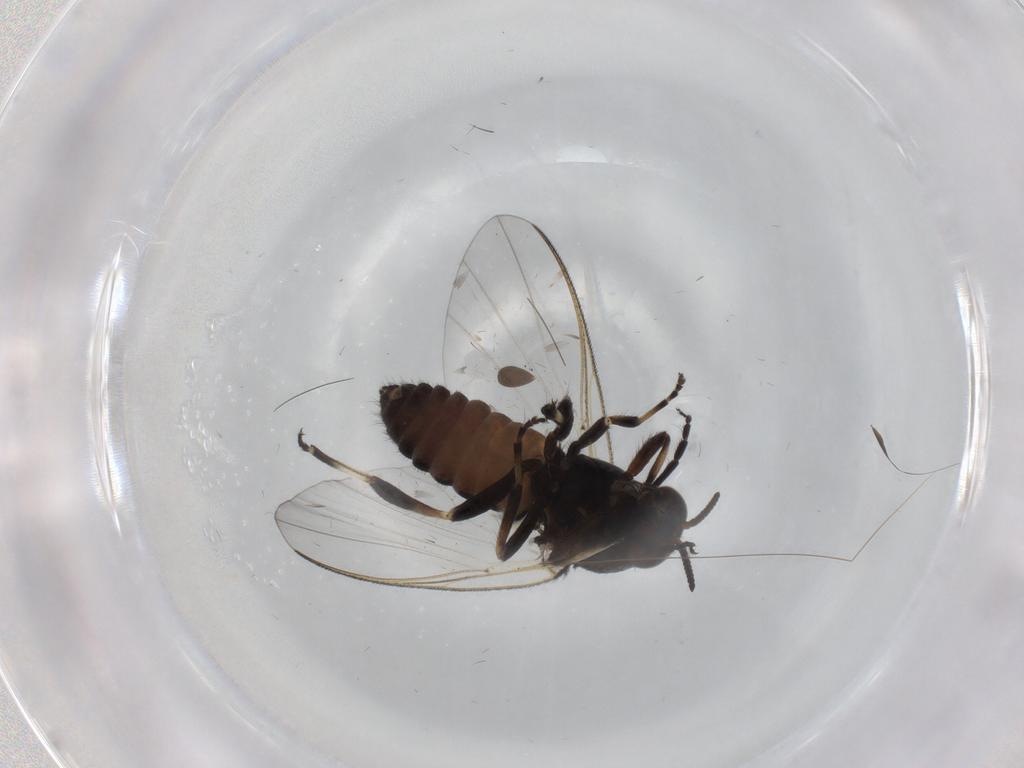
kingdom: Animalia
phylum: Arthropoda
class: Insecta
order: Diptera
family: Simuliidae
